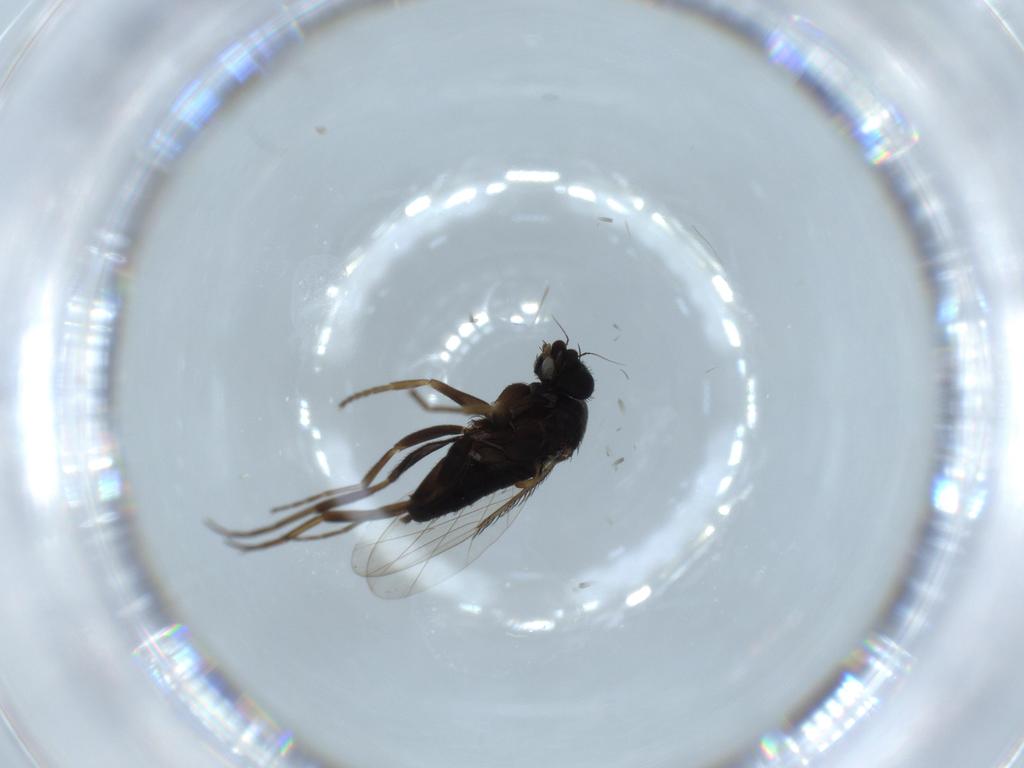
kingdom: Animalia
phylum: Arthropoda
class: Insecta
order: Diptera
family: Phoridae
